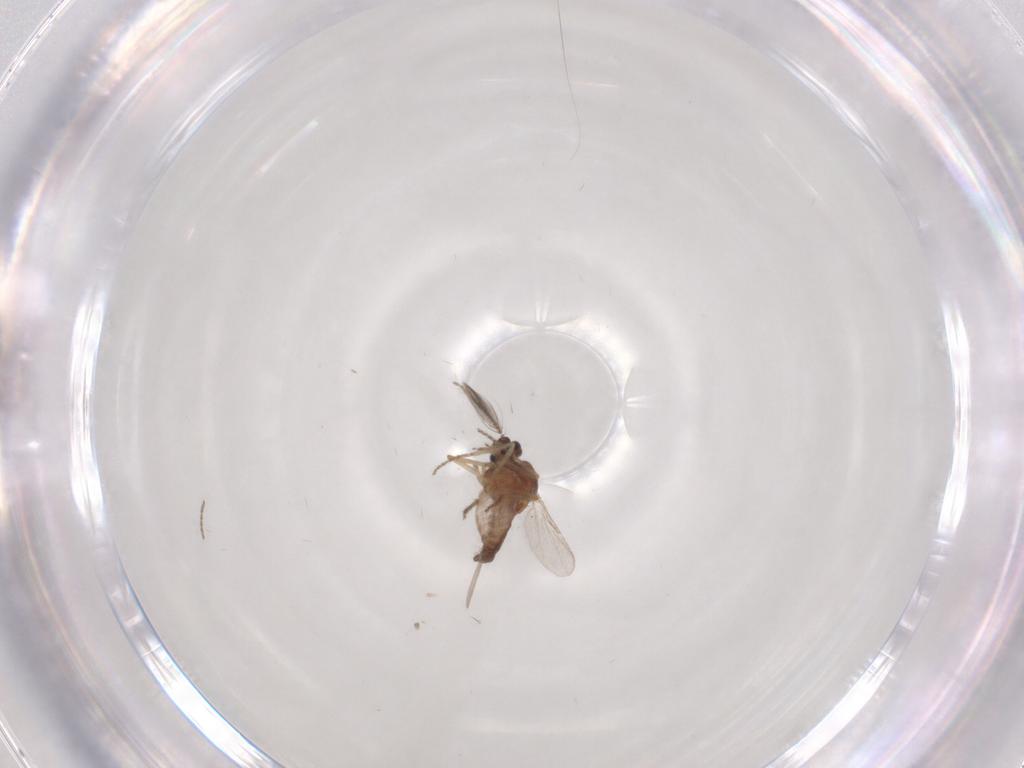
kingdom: Animalia
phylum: Arthropoda
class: Insecta
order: Diptera
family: Ceratopogonidae
